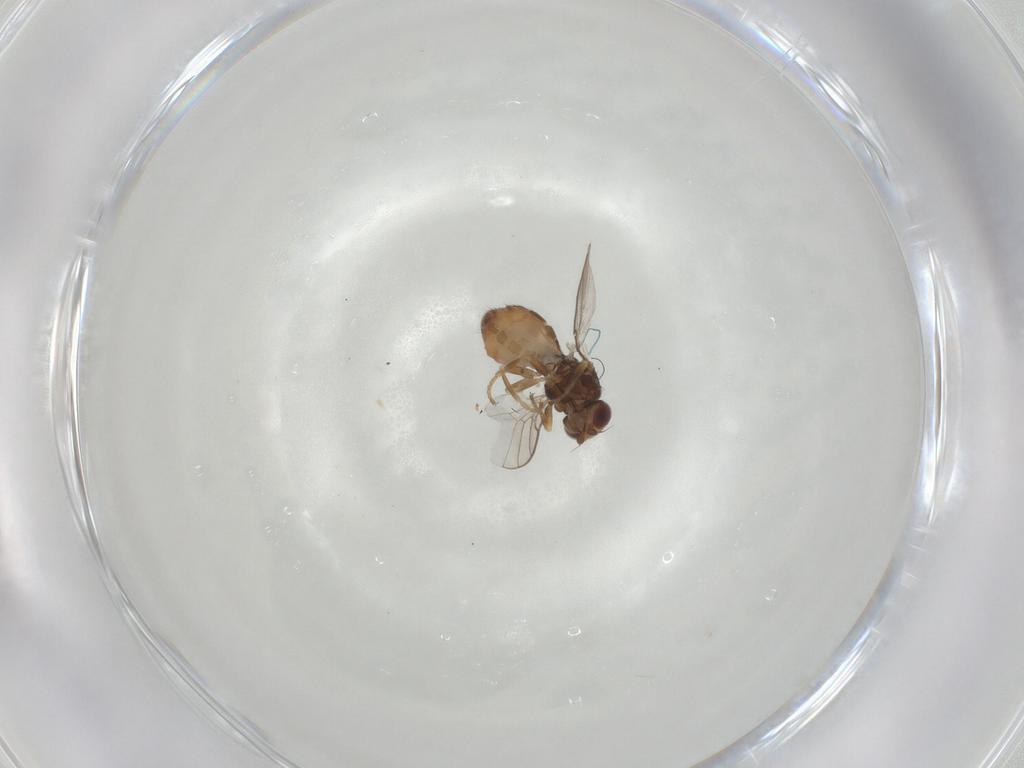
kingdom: Animalia
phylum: Arthropoda
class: Insecta
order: Diptera
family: Chloropidae
